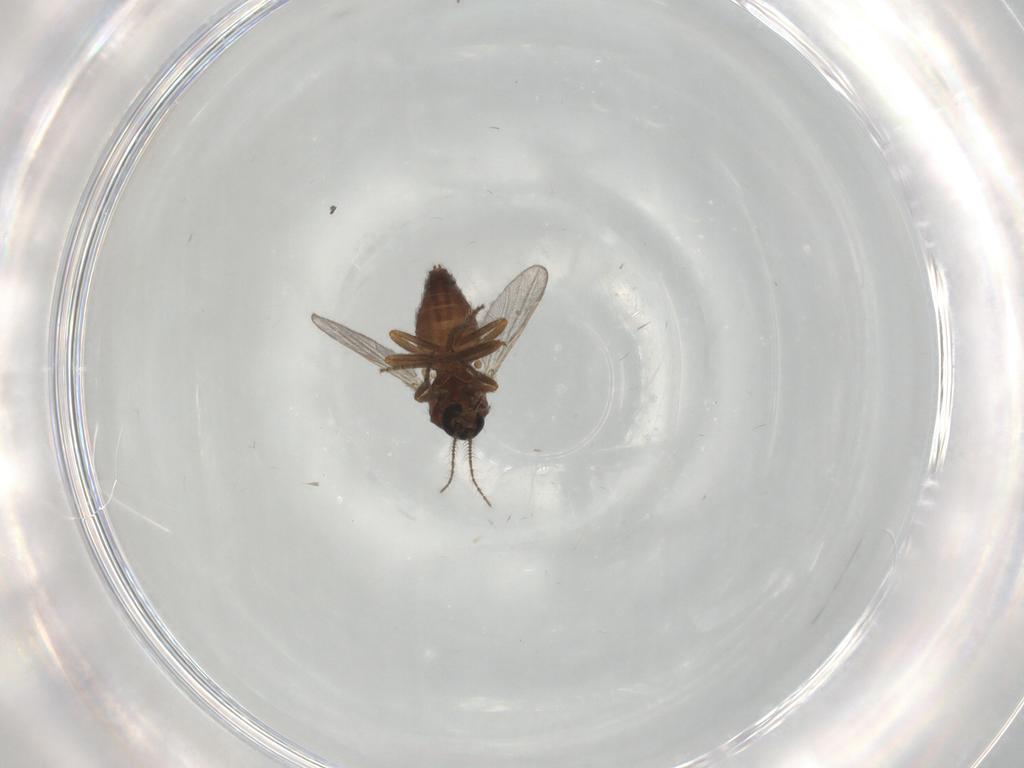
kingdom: Animalia
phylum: Arthropoda
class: Insecta
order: Diptera
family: Ceratopogonidae
